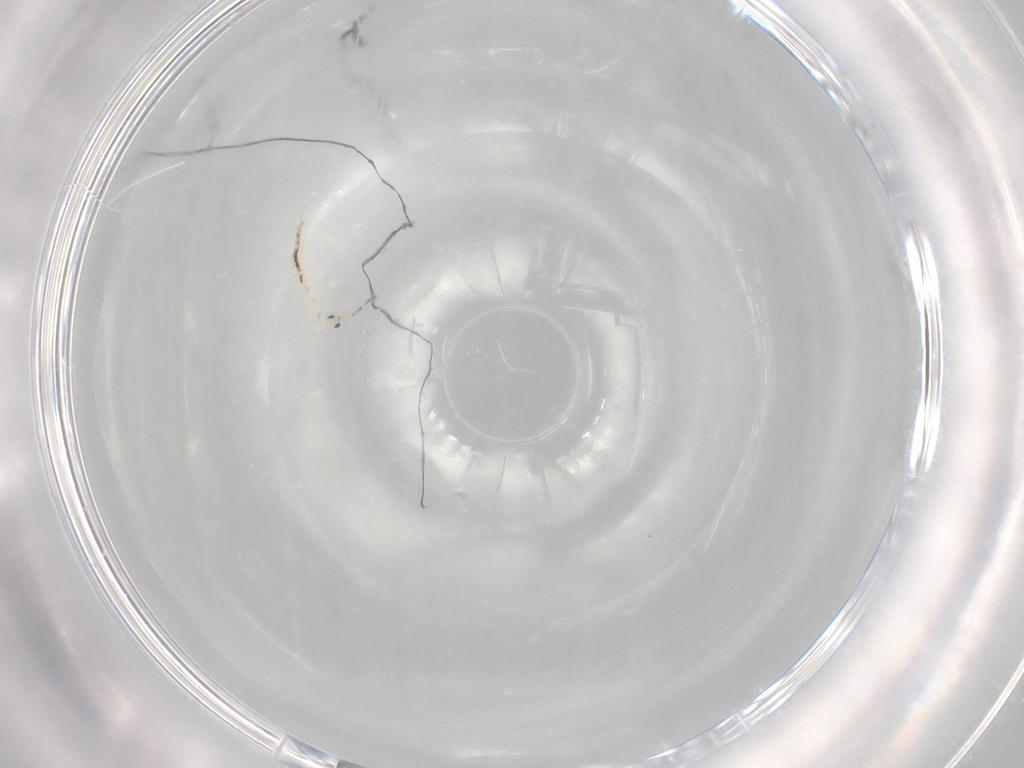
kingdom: Animalia
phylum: Arthropoda
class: Collembola
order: Entomobryomorpha
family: Entomobryidae
